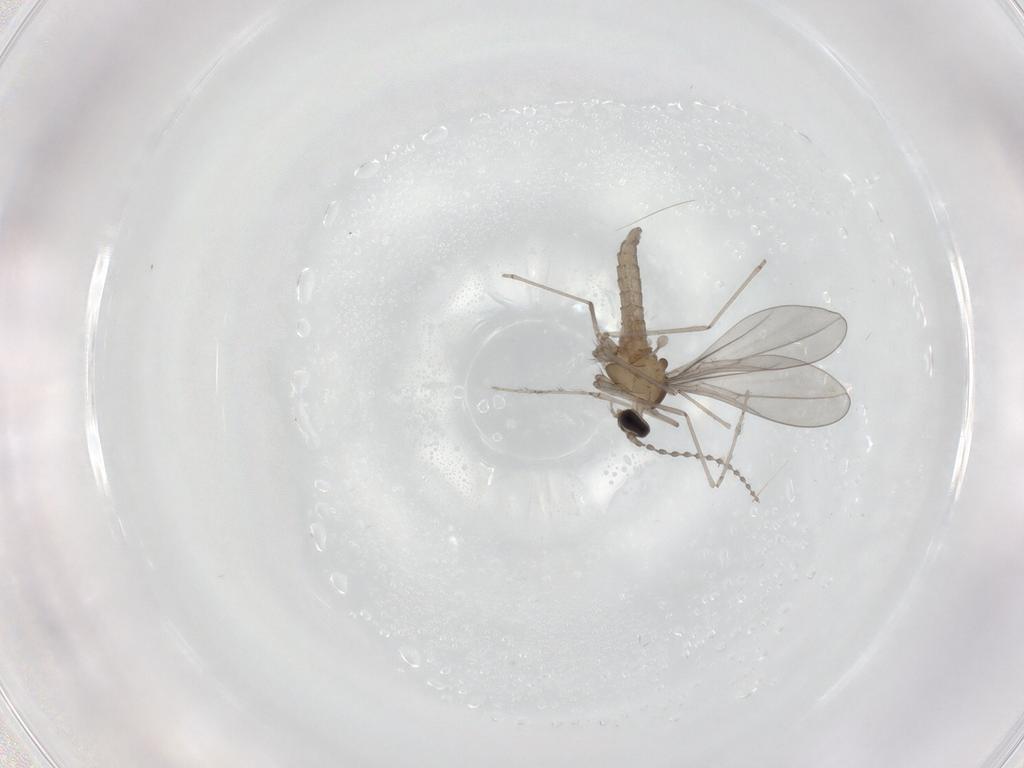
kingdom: Animalia
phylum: Arthropoda
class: Insecta
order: Diptera
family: Cecidomyiidae
